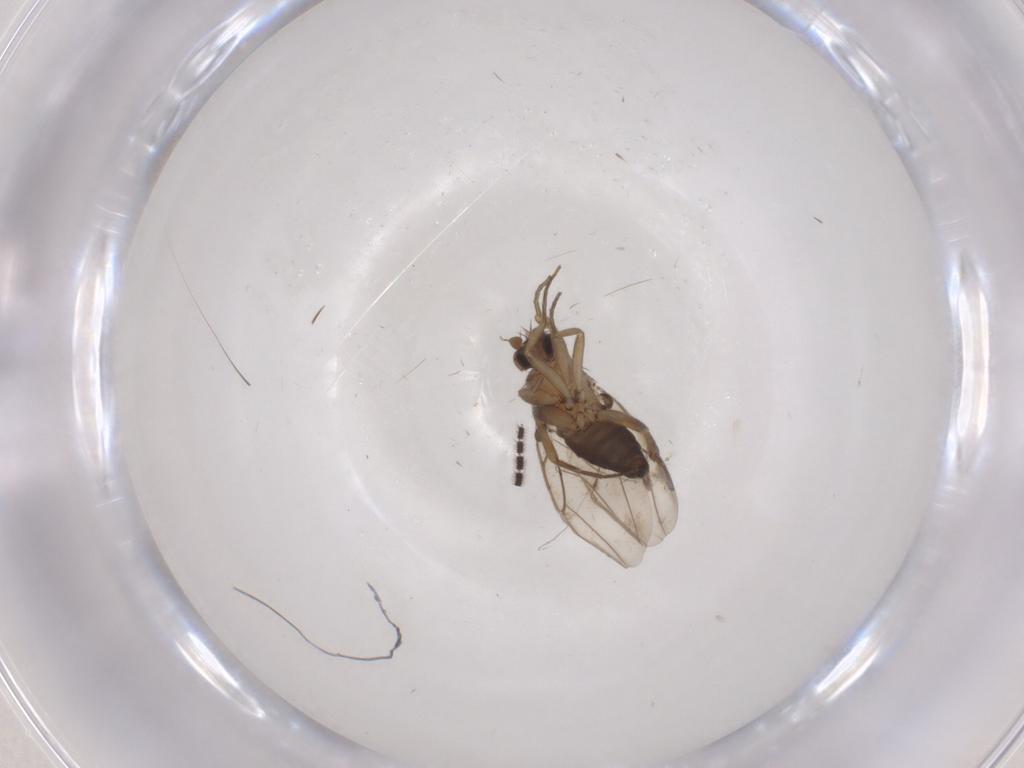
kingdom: Animalia
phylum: Arthropoda
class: Insecta
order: Diptera
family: Phoridae
